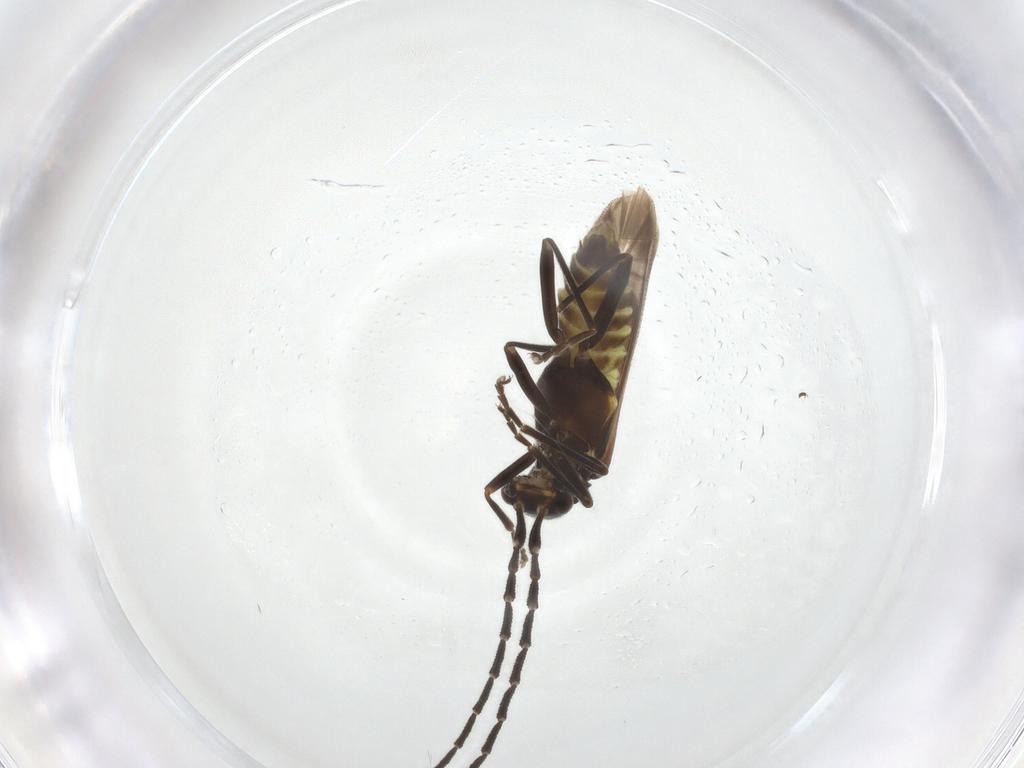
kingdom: Animalia
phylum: Arthropoda
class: Insecta
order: Coleoptera
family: Cantharidae
